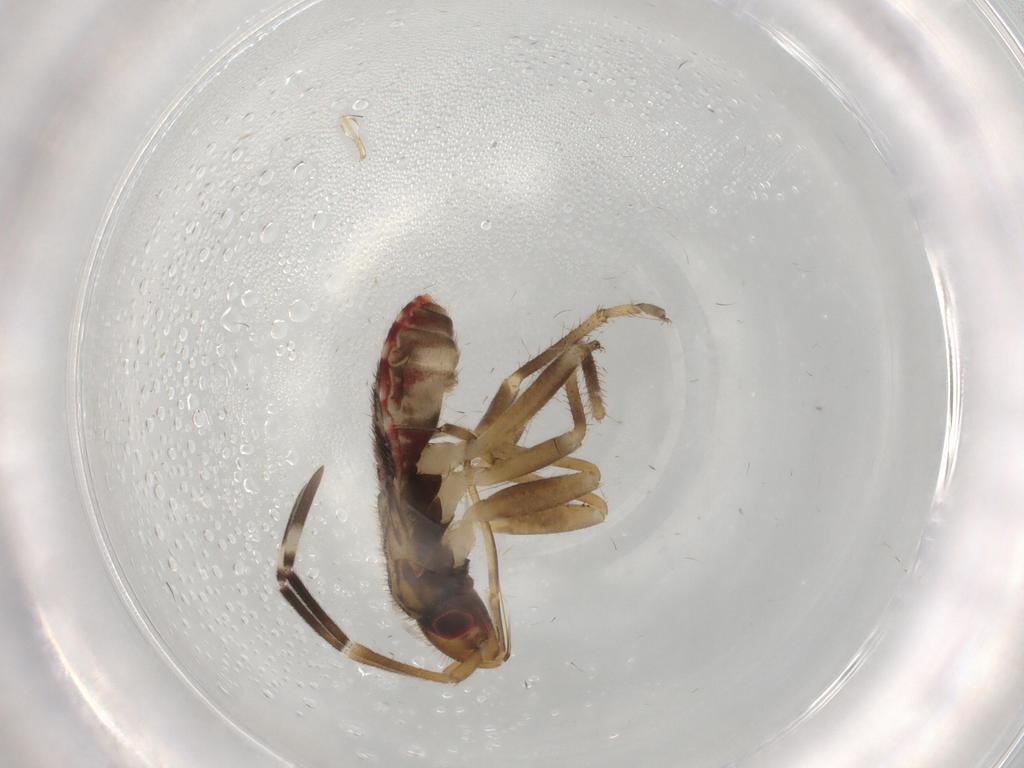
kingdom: Animalia
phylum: Arthropoda
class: Insecta
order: Hemiptera
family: Rhyparochromidae
